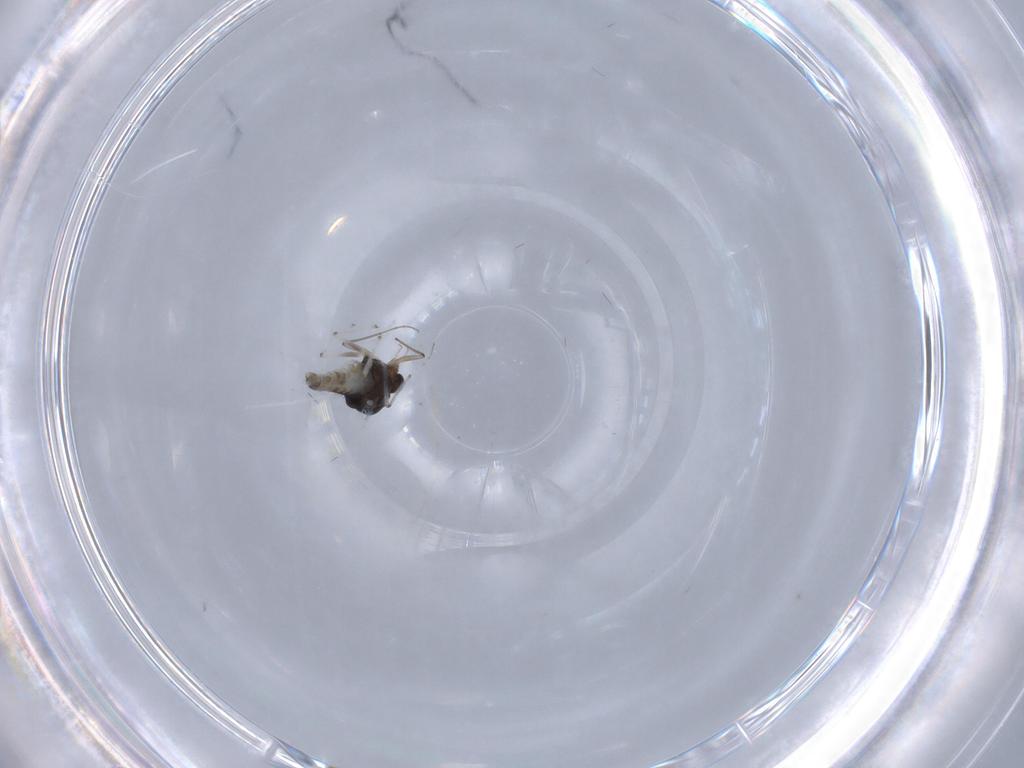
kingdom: Animalia
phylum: Arthropoda
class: Insecta
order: Diptera
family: Chironomidae
